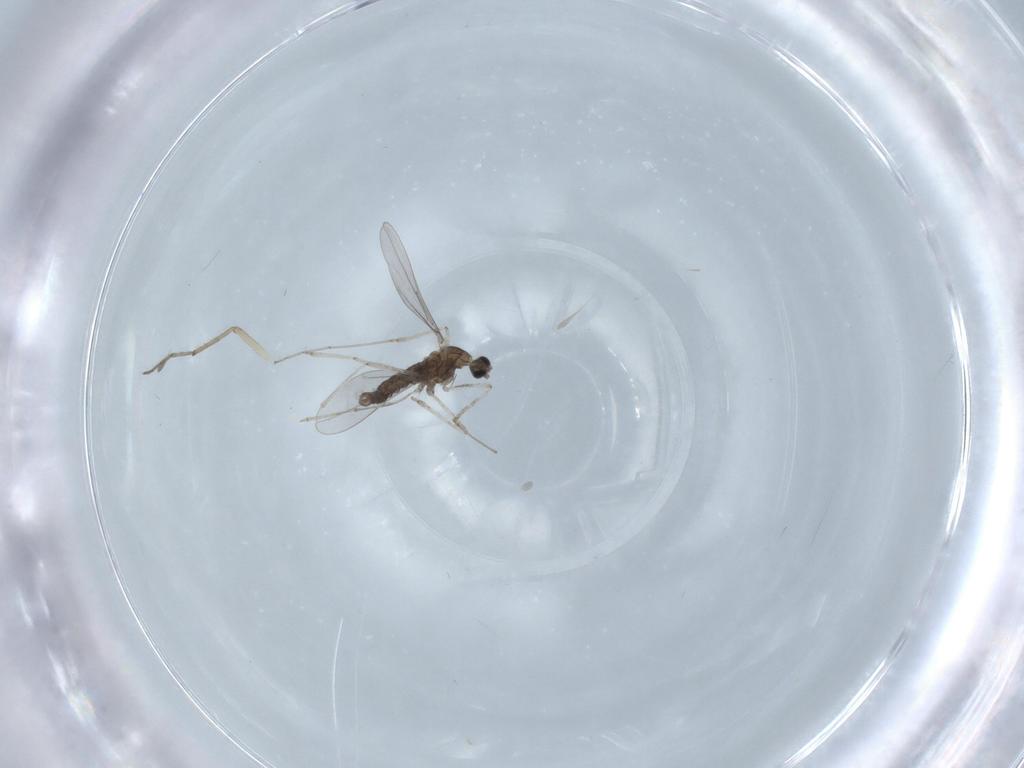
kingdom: Animalia
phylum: Arthropoda
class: Insecta
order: Diptera
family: Cecidomyiidae
